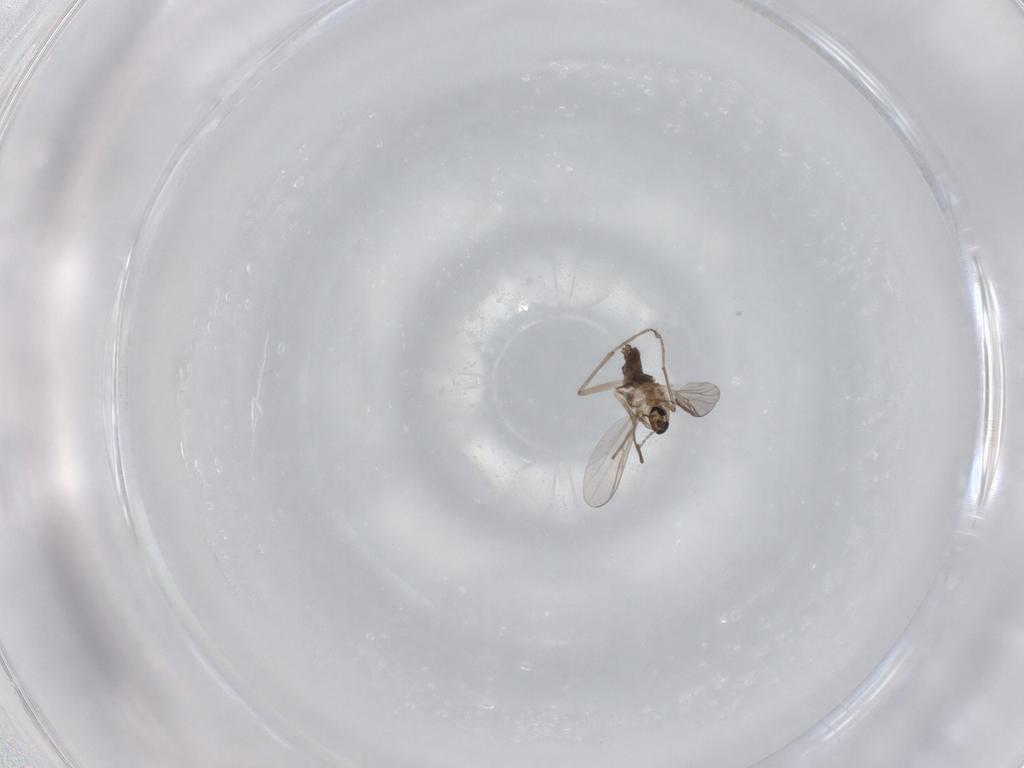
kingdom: Animalia
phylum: Arthropoda
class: Insecta
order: Diptera
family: Chironomidae
